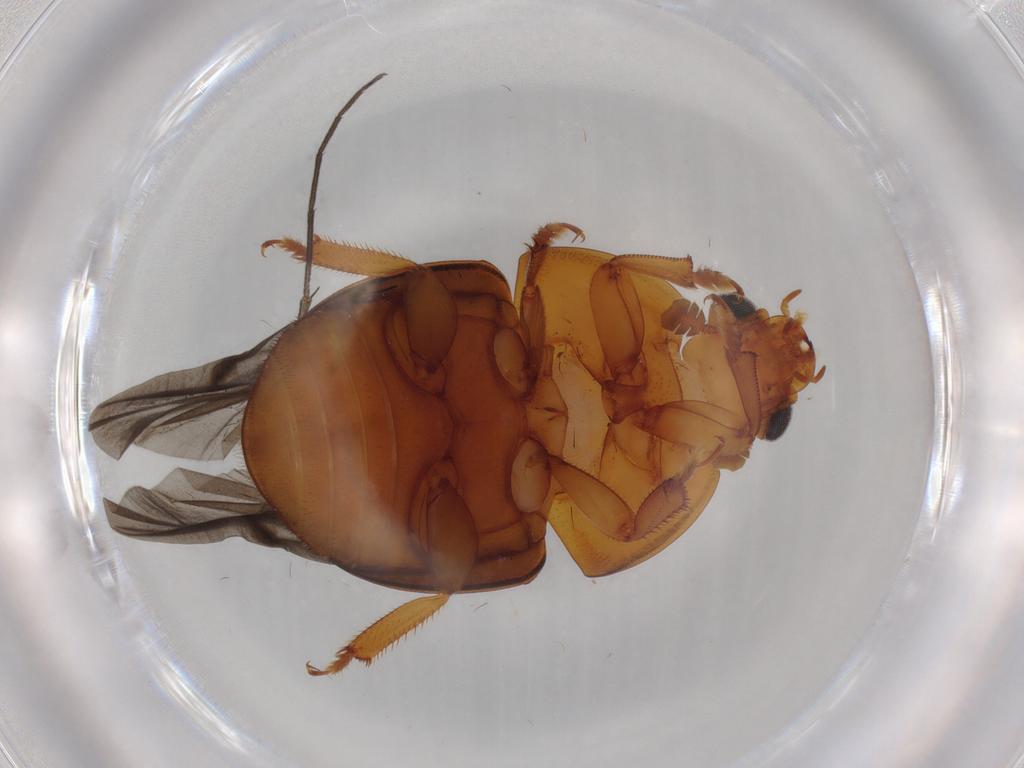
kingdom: Animalia
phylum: Arthropoda
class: Insecta
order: Coleoptera
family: Nitidulidae
